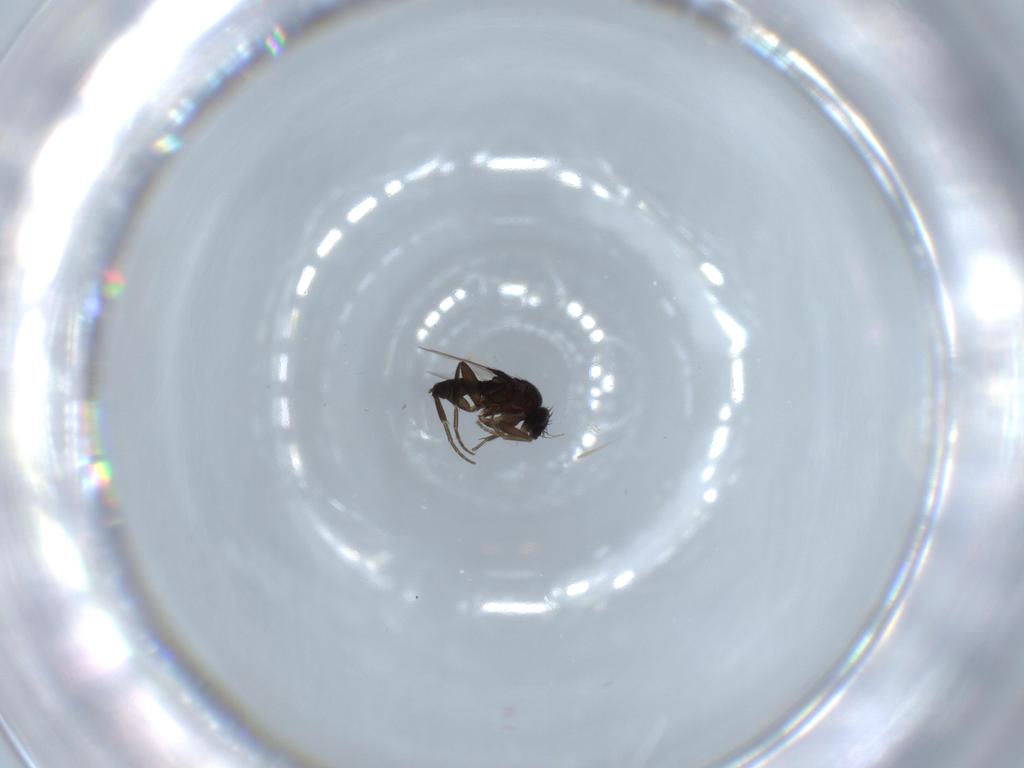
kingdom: Animalia
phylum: Arthropoda
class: Insecta
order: Diptera
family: Phoridae
